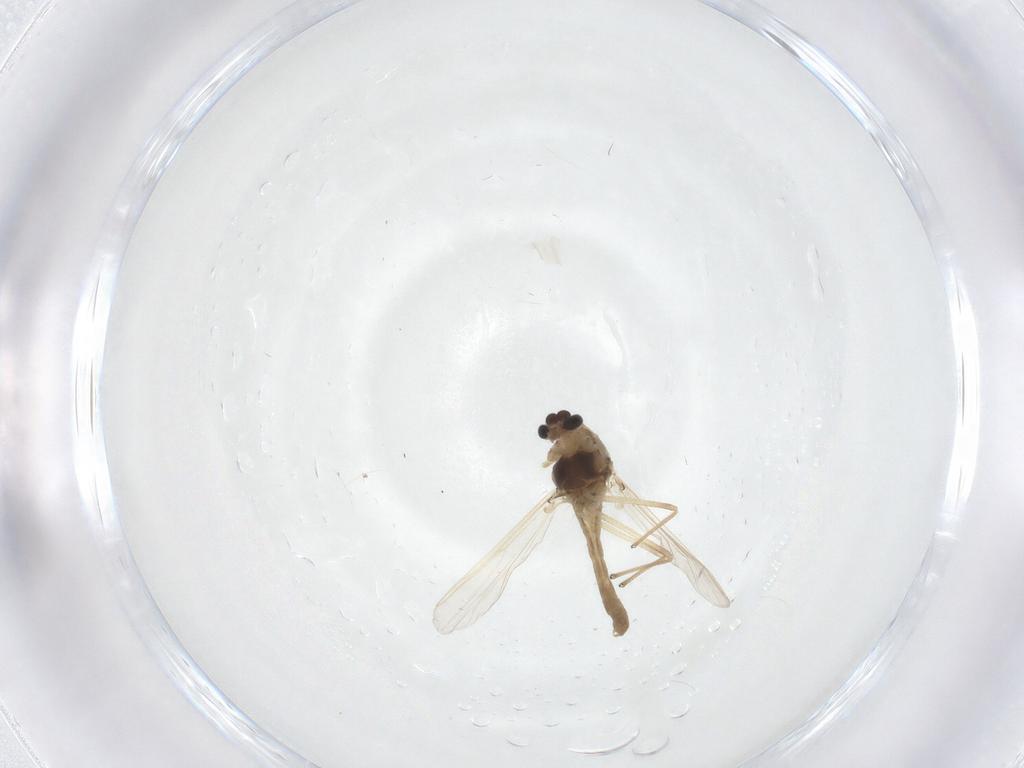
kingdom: Animalia
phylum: Arthropoda
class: Insecta
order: Diptera
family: Chironomidae
